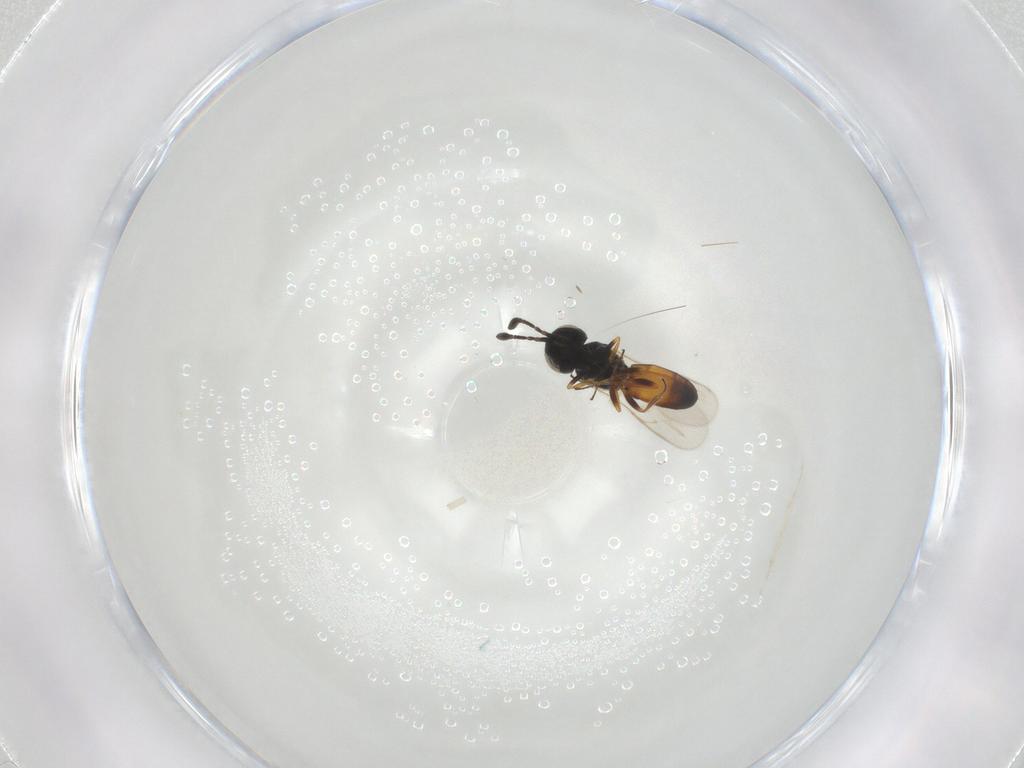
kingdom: Animalia
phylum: Arthropoda
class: Insecta
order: Hymenoptera
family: Scelionidae
